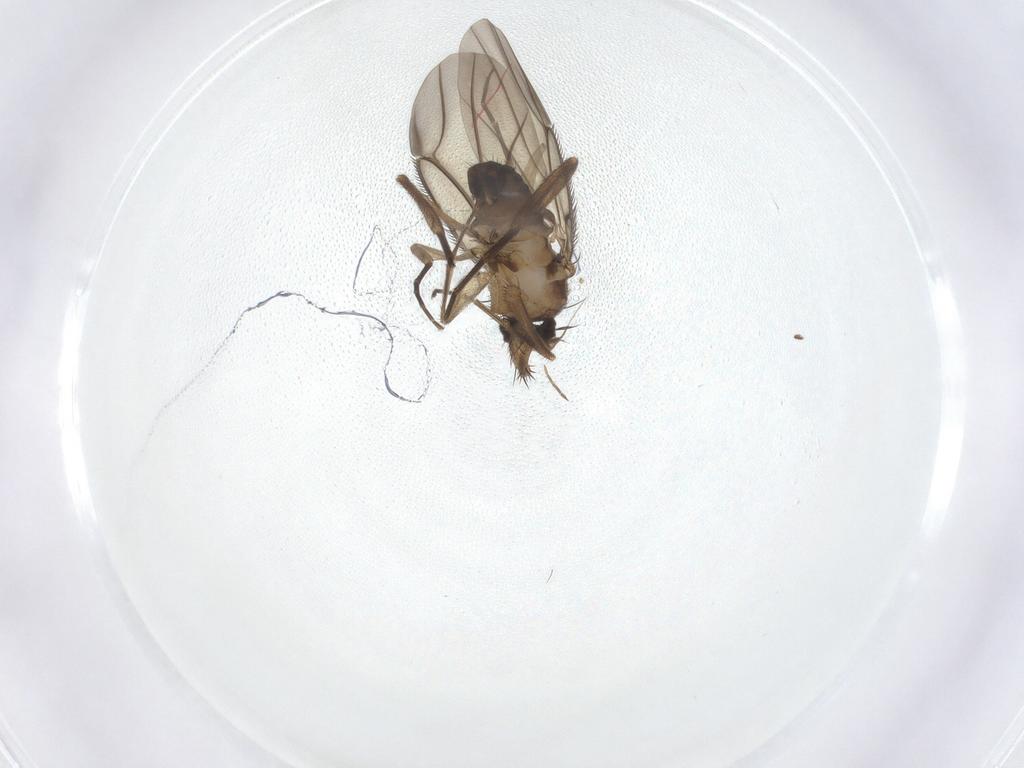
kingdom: Animalia
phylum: Arthropoda
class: Insecta
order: Diptera
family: Phoridae
